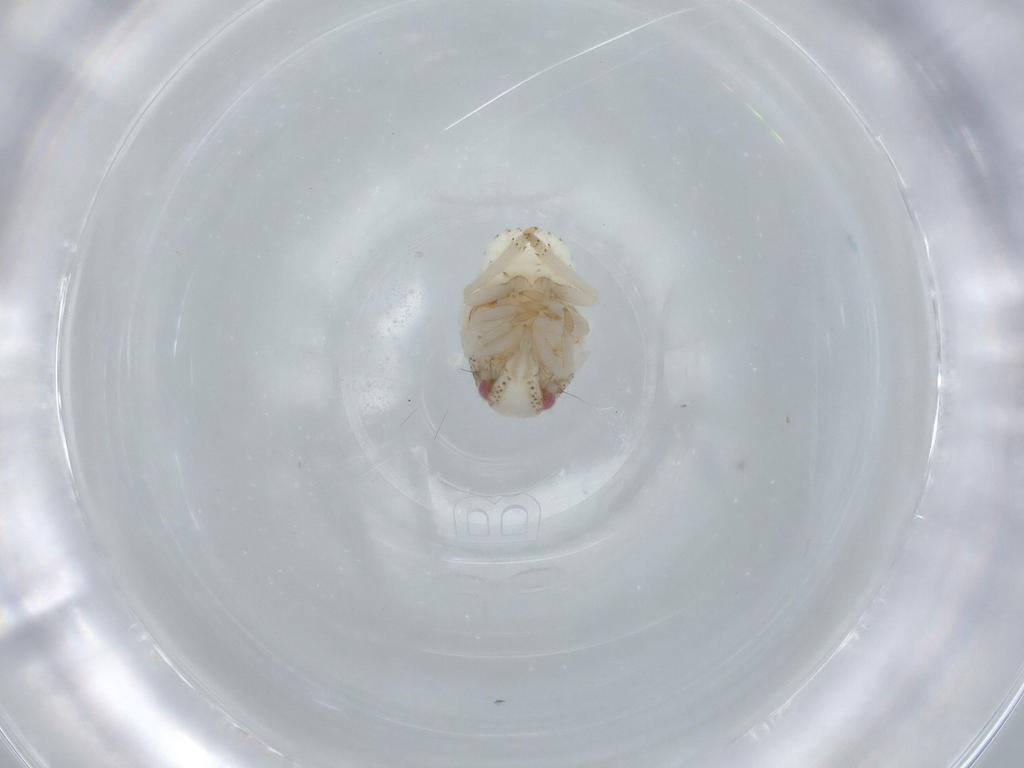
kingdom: Animalia
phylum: Arthropoda
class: Insecta
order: Hemiptera
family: Acanaloniidae
